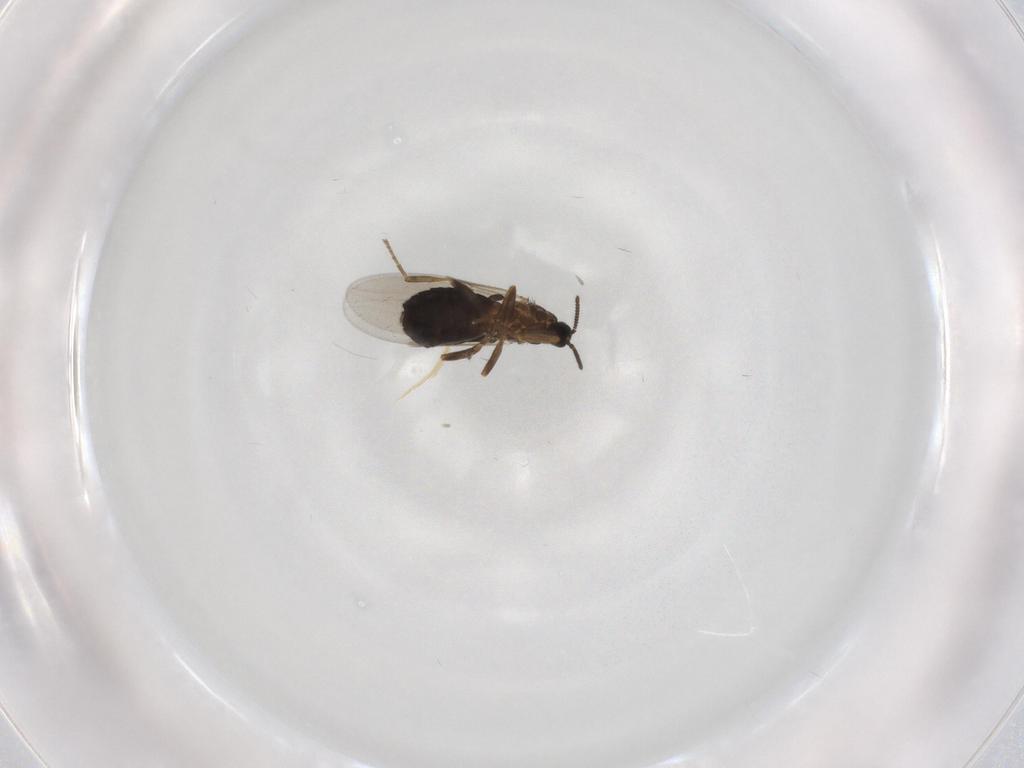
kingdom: Animalia
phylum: Arthropoda
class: Insecta
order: Diptera
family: Scatopsidae
